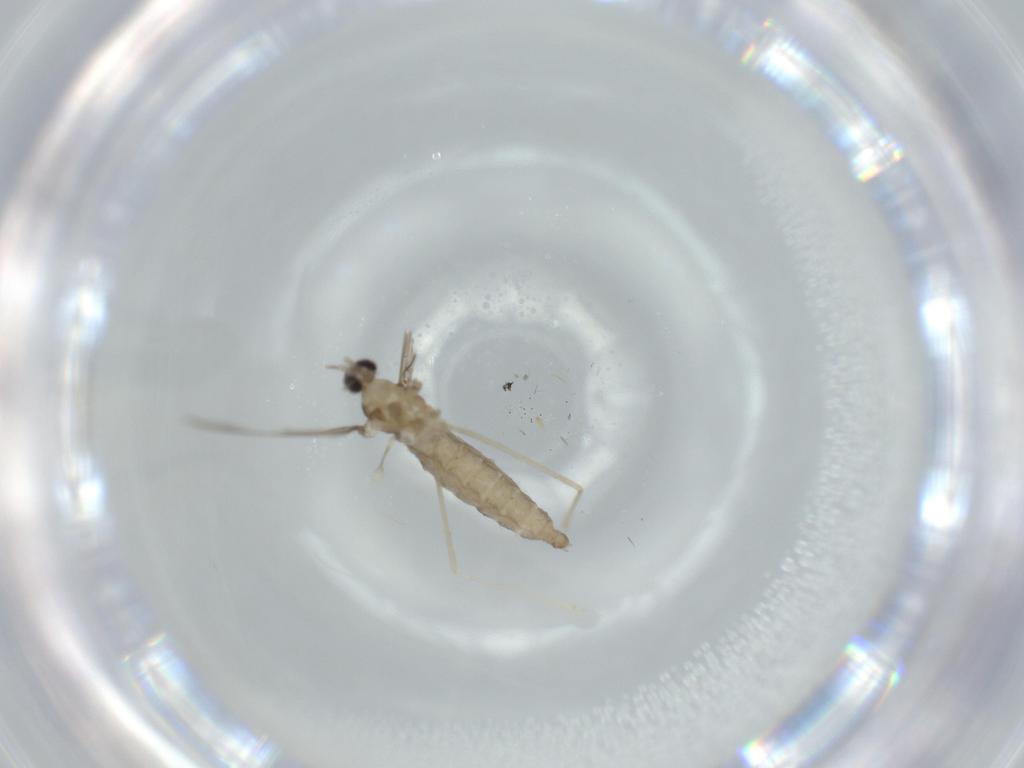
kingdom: Animalia
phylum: Arthropoda
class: Insecta
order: Diptera
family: Cecidomyiidae
